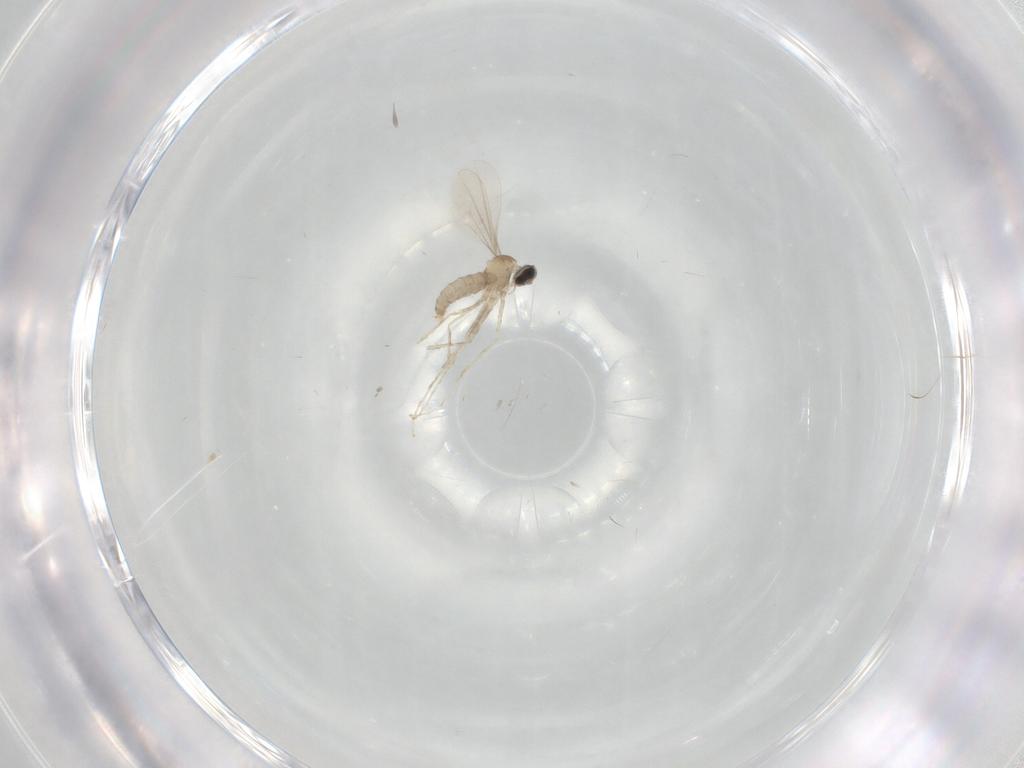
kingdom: Animalia
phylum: Arthropoda
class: Insecta
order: Diptera
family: Cecidomyiidae
